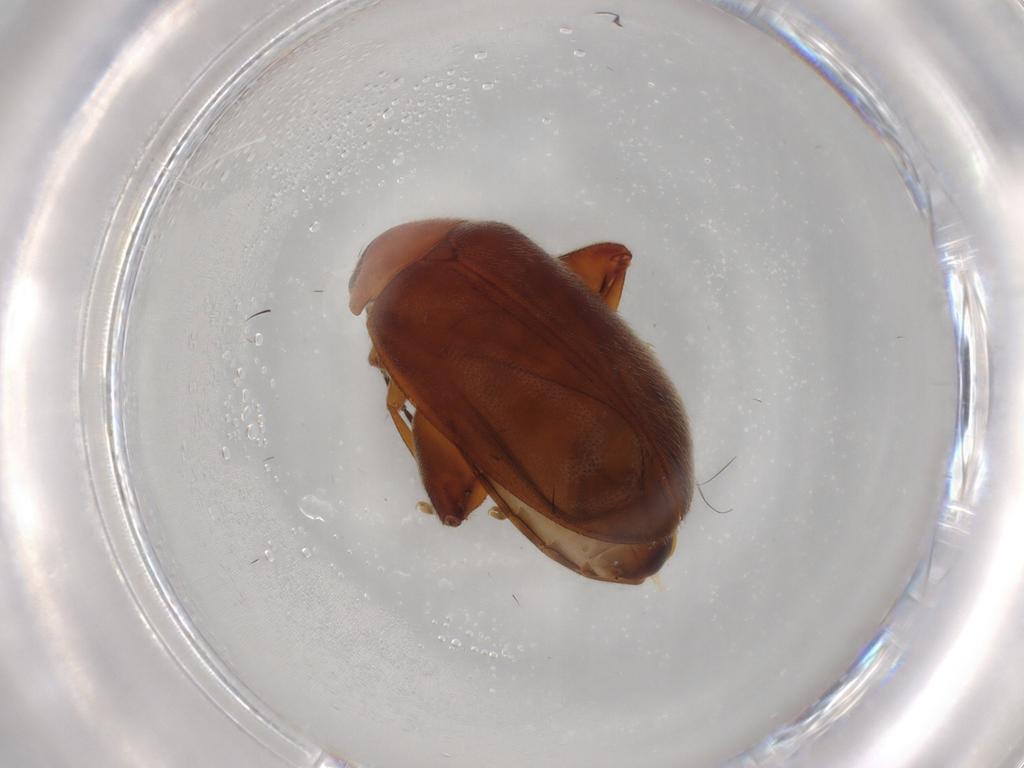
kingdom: Animalia
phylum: Arthropoda
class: Insecta
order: Coleoptera
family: Scirtidae
